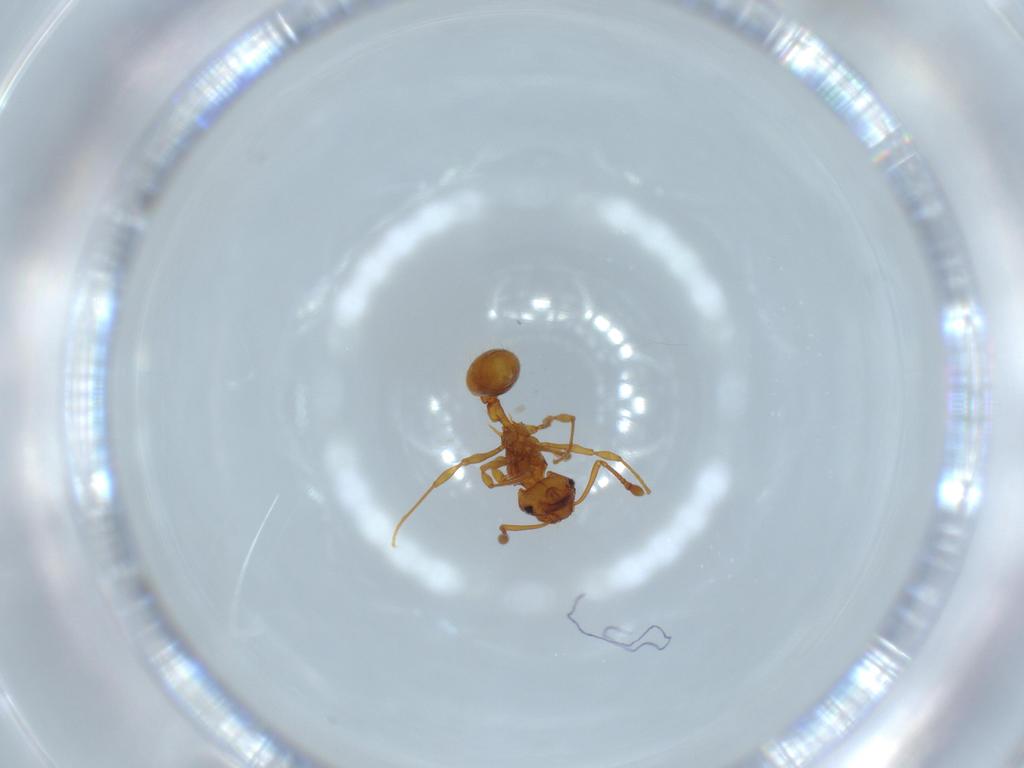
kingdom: Animalia
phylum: Arthropoda
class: Insecta
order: Hymenoptera
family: Formicidae
